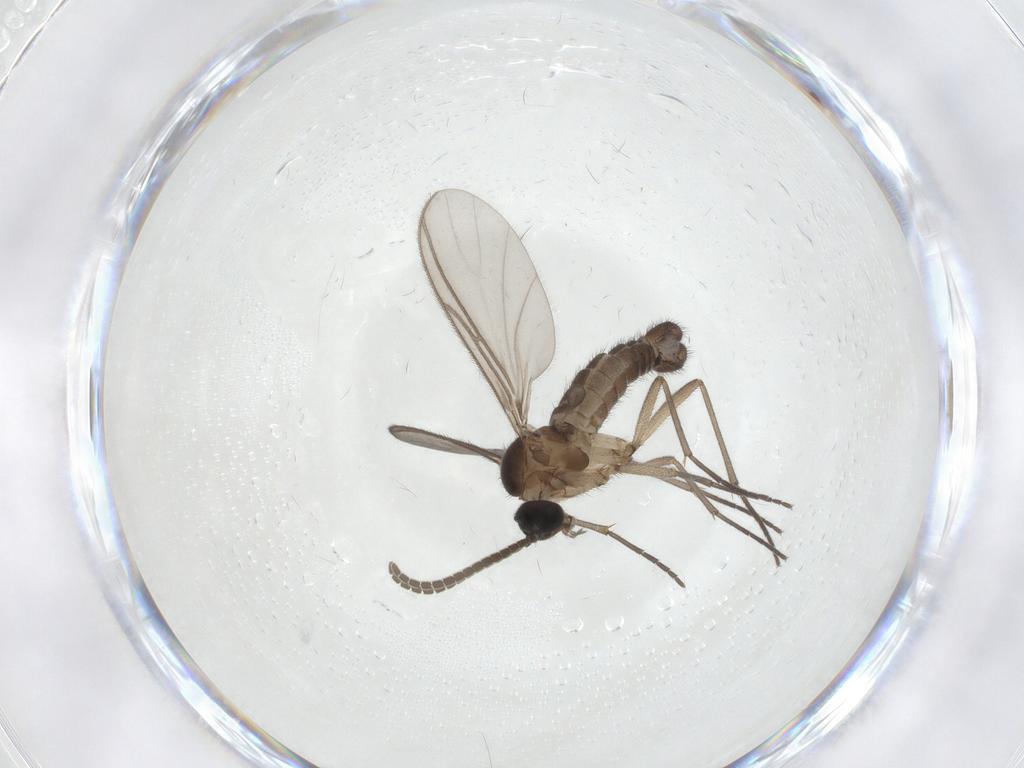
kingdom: Animalia
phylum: Arthropoda
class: Insecta
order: Diptera
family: Sciaridae
